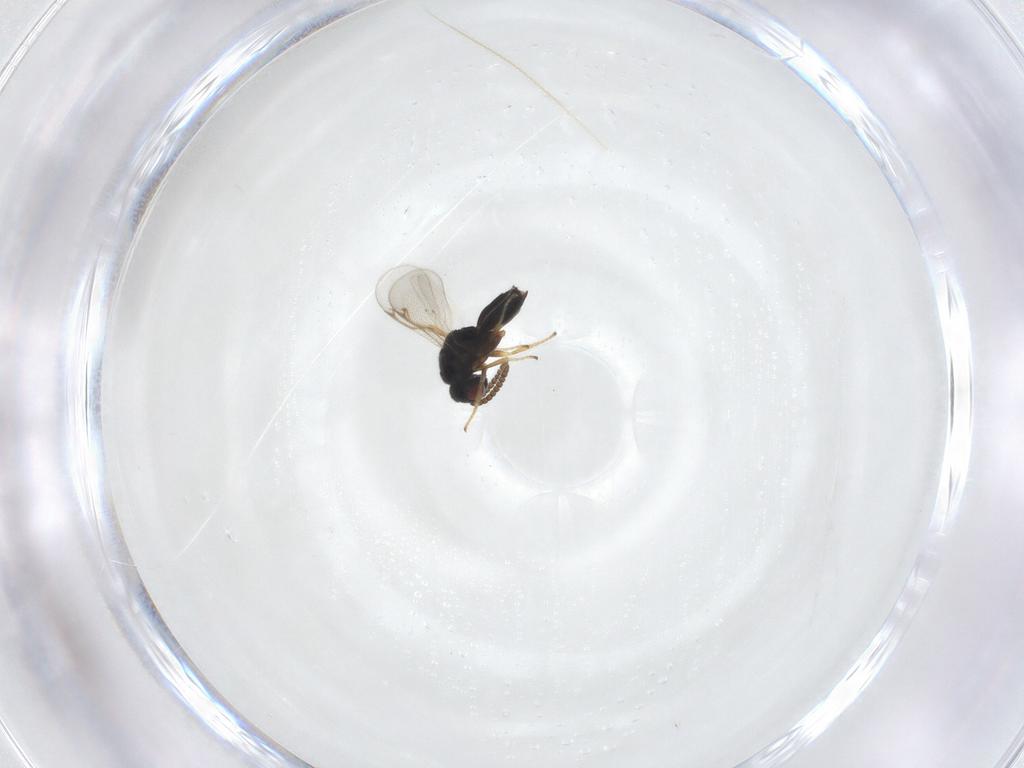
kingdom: Animalia
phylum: Arthropoda
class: Insecta
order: Hymenoptera
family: Chalcididae
